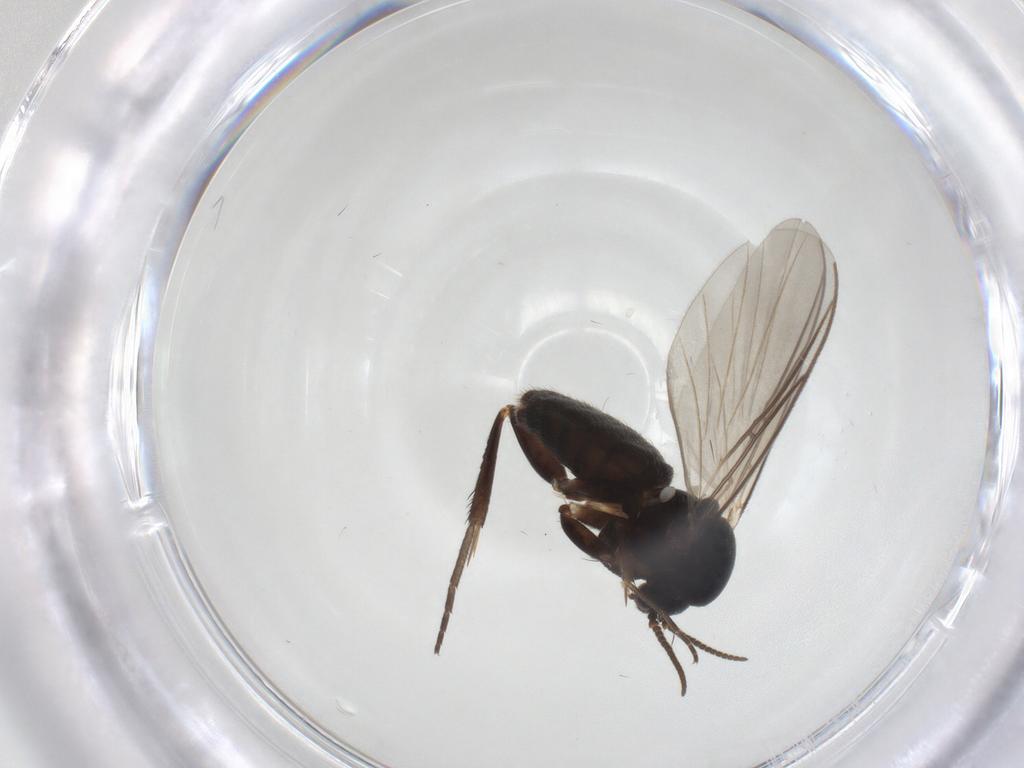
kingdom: Animalia
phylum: Arthropoda
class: Insecta
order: Diptera
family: Mycetophilidae
